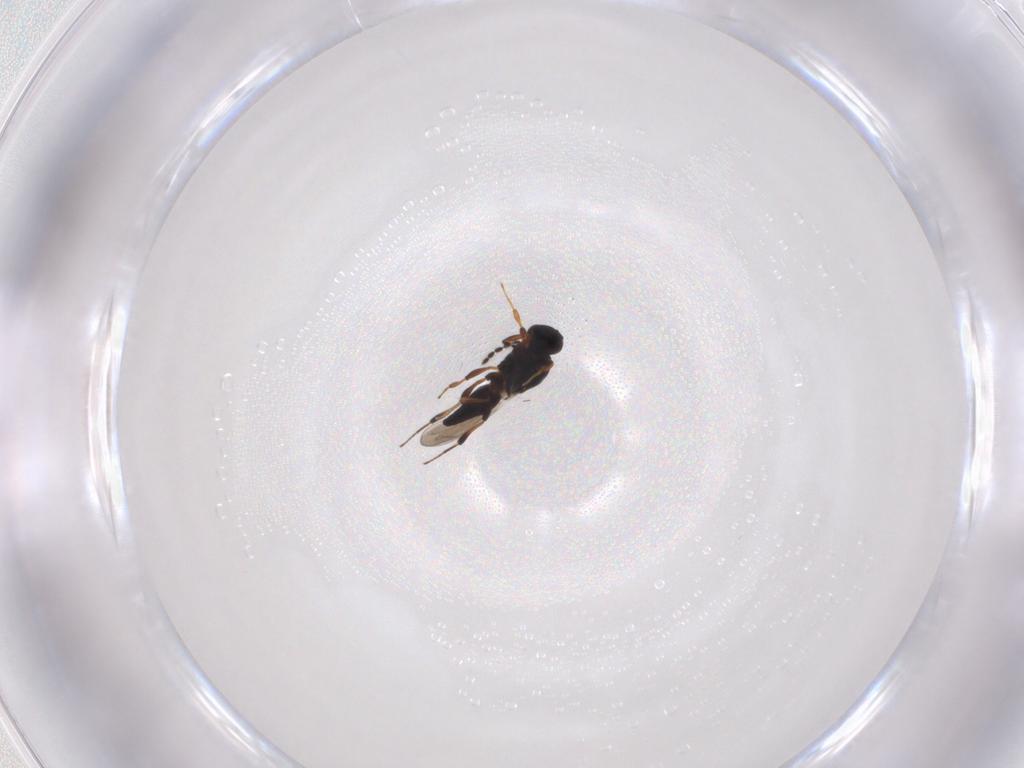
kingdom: Animalia
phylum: Arthropoda
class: Insecta
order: Hymenoptera
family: Platygastridae
